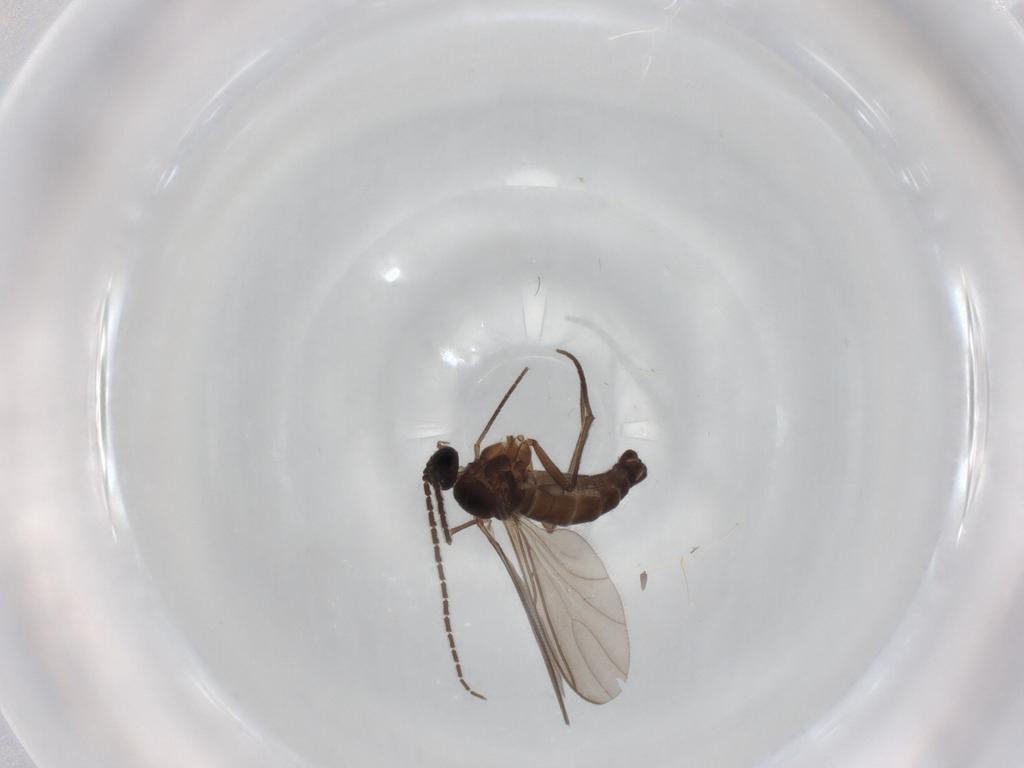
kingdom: Animalia
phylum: Arthropoda
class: Insecta
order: Diptera
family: Sciaridae
